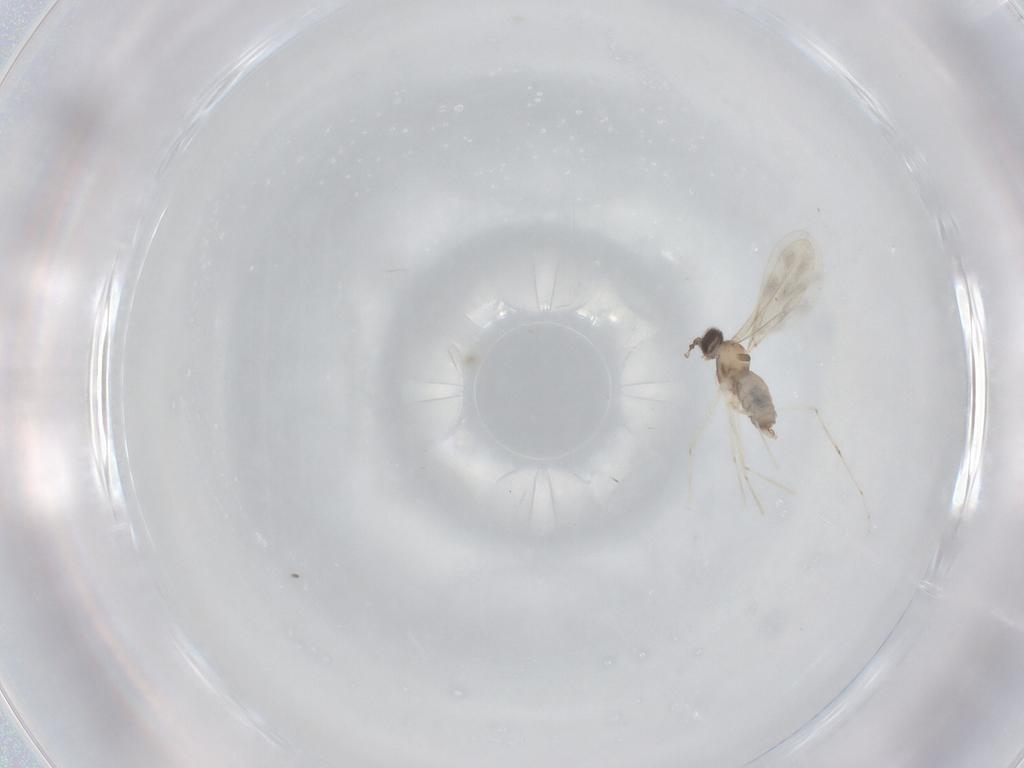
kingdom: Animalia
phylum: Arthropoda
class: Insecta
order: Diptera
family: Cecidomyiidae
